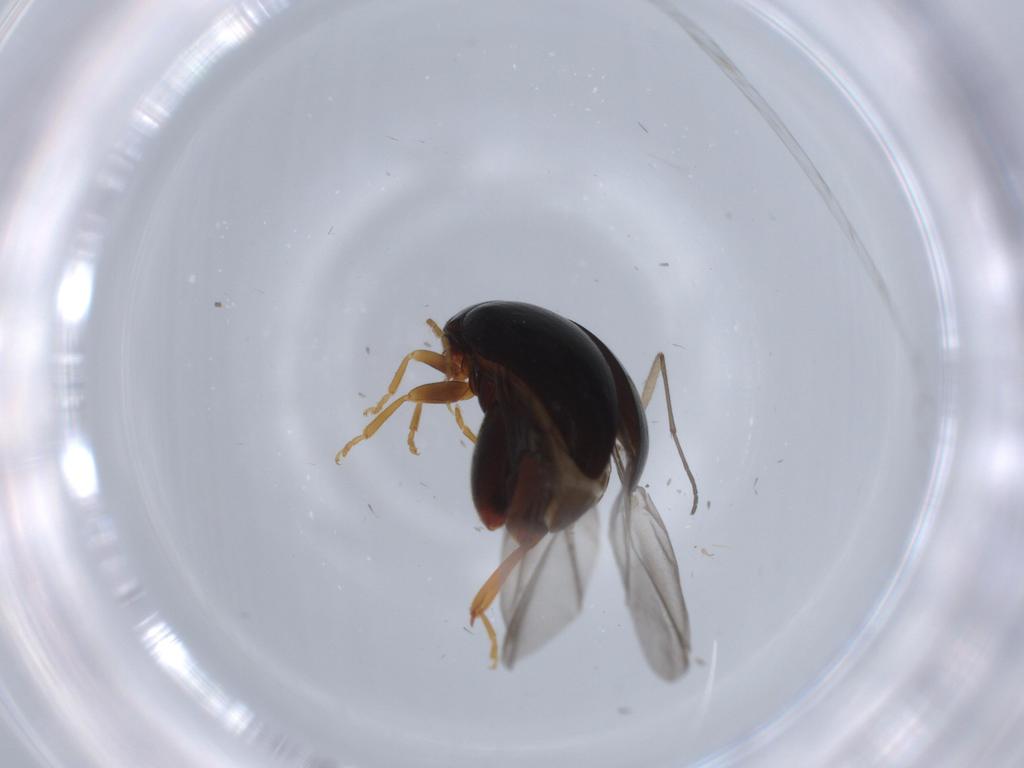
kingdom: Animalia
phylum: Arthropoda
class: Insecta
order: Coleoptera
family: Chrysomelidae
